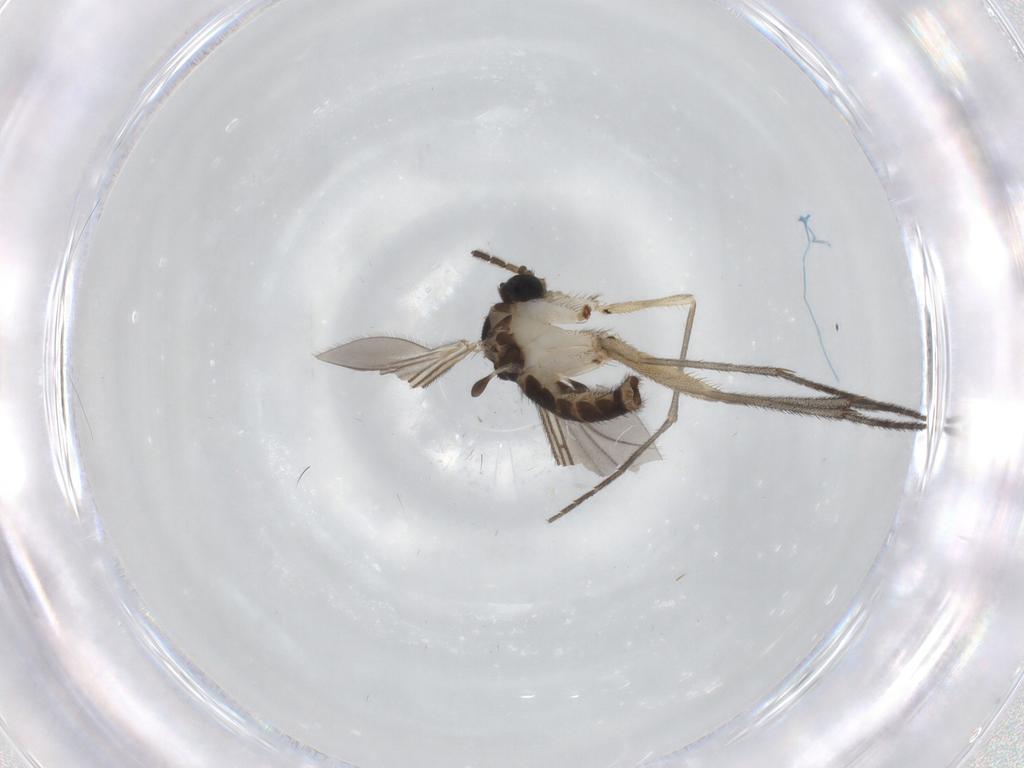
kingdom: Animalia
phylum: Arthropoda
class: Insecta
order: Diptera
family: Sciaridae
